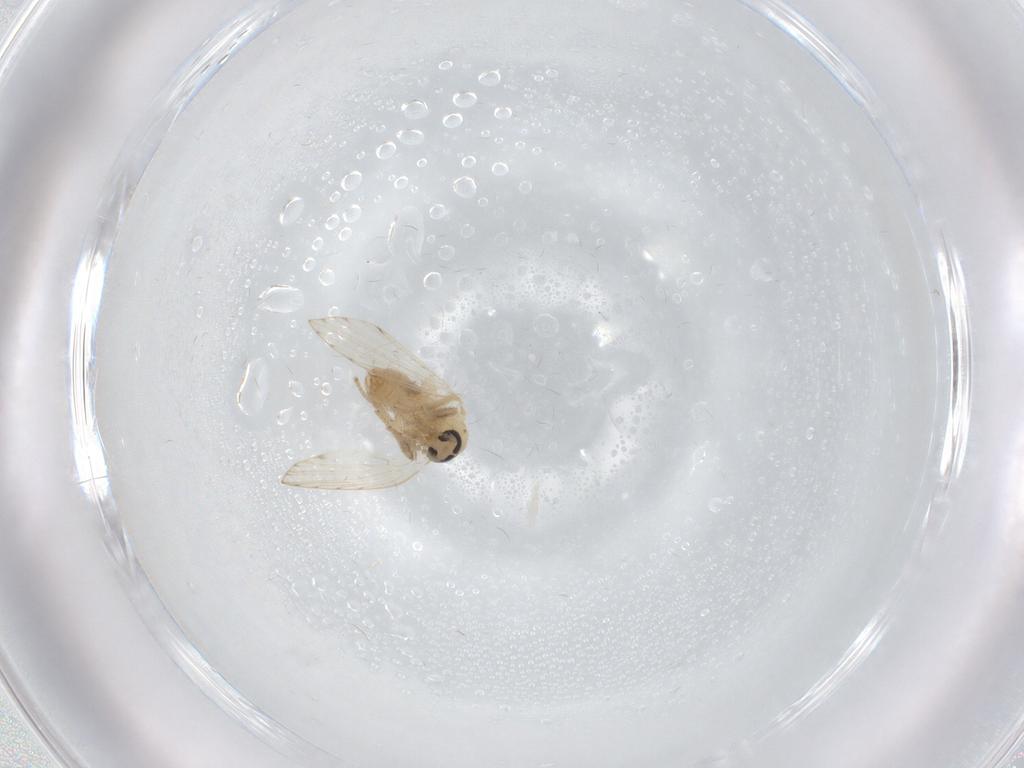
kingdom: Animalia
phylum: Arthropoda
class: Insecta
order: Diptera
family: Psychodidae
